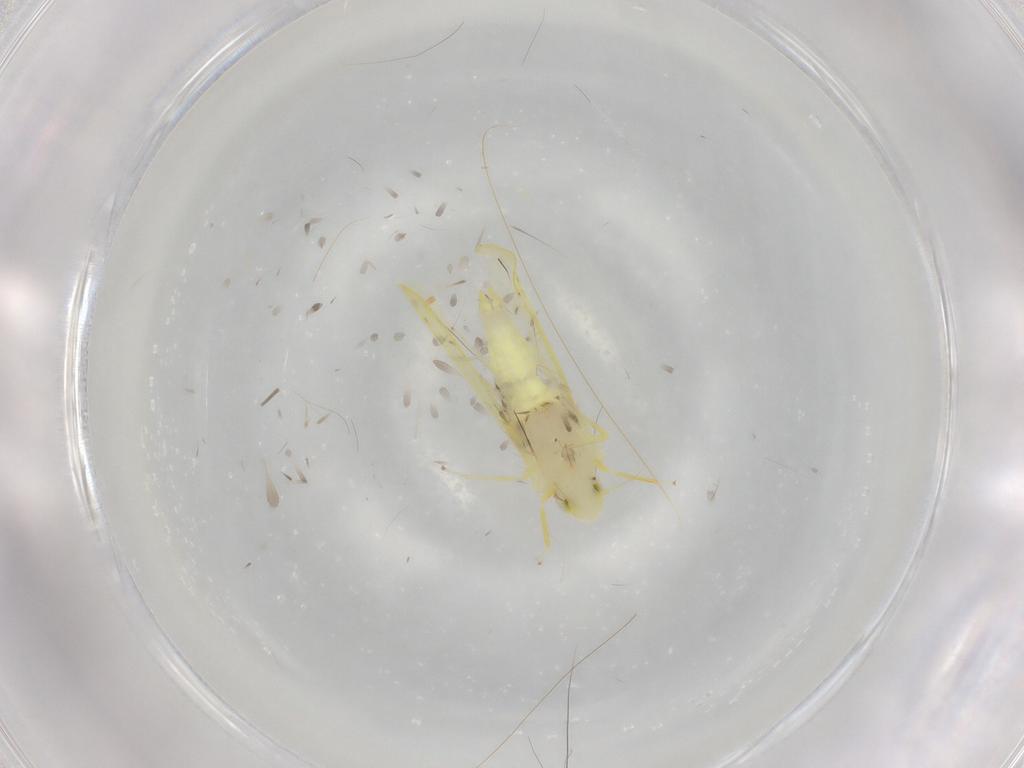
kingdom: Animalia
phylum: Arthropoda
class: Insecta
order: Hemiptera
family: Cicadellidae
